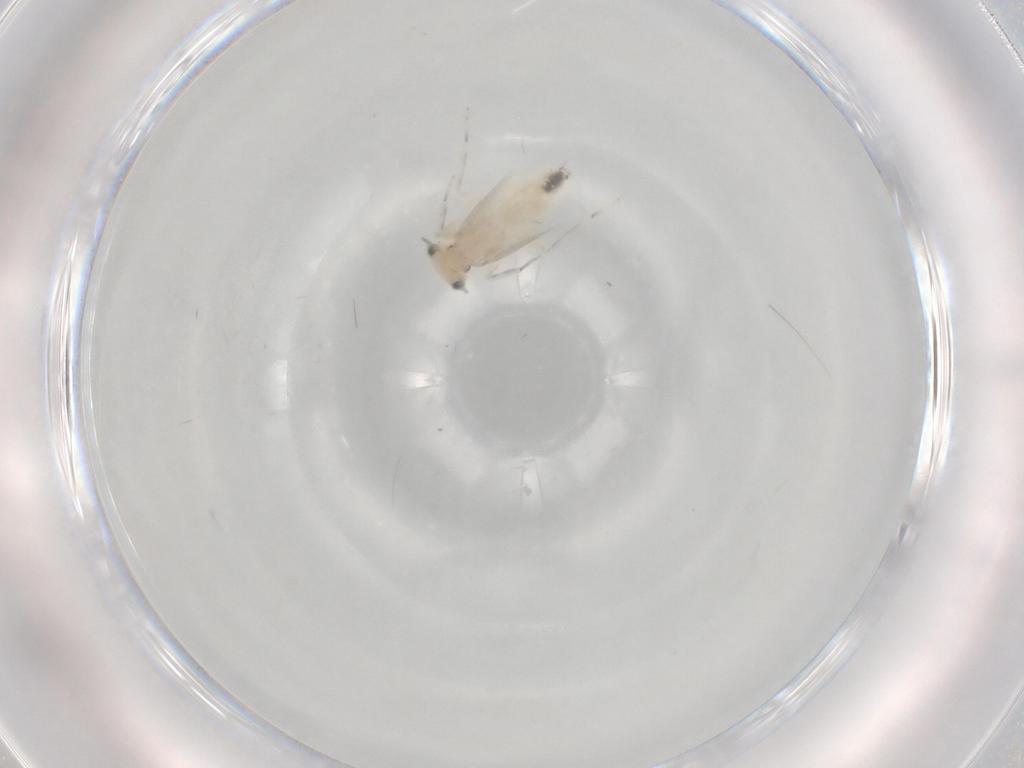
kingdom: Animalia
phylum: Arthropoda
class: Insecta
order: Psocodea
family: Lepidopsocidae
